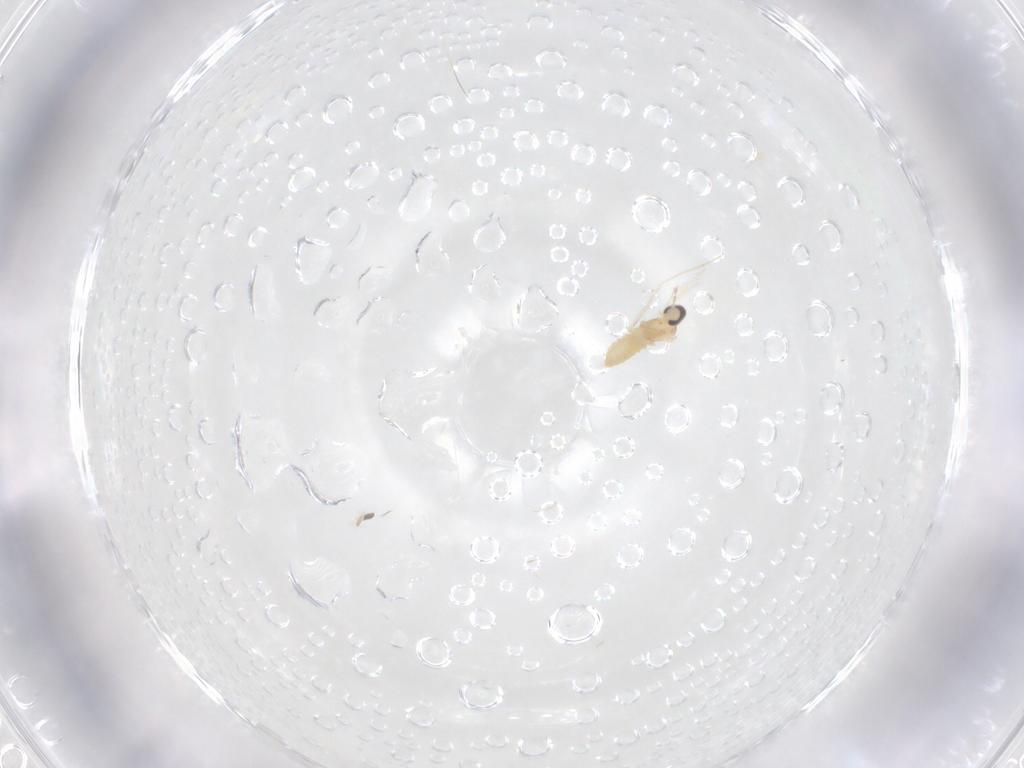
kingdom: Animalia
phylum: Arthropoda
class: Insecta
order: Diptera
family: Cecidomyiidae
